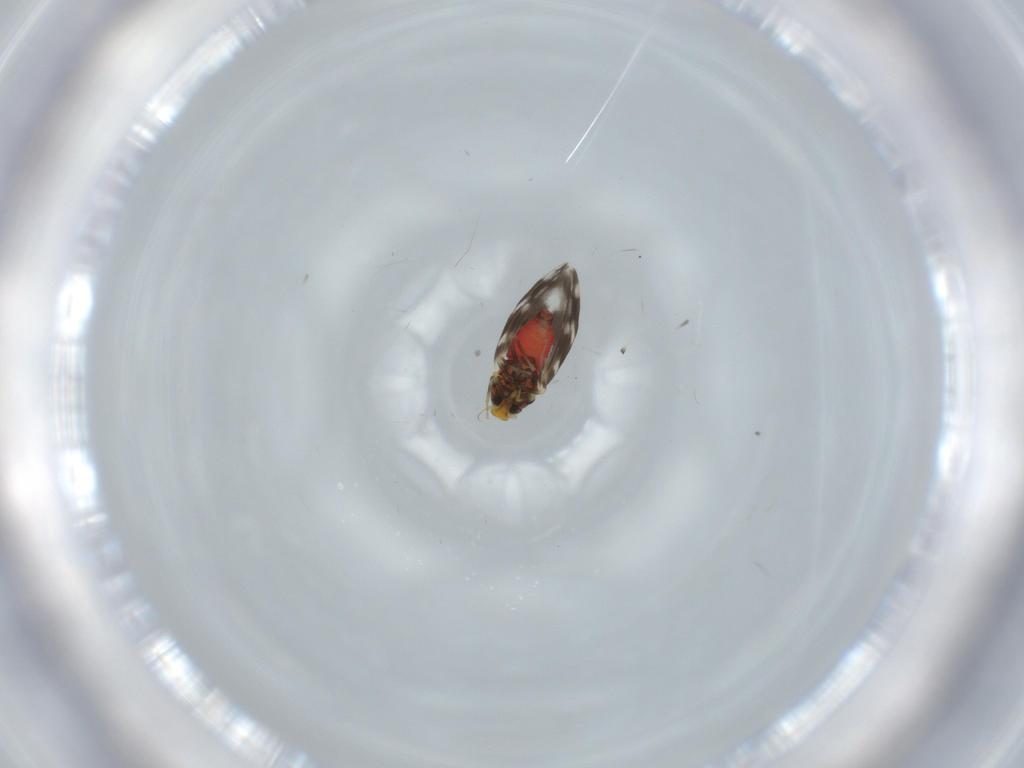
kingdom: Animalia
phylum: Arthropoda
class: Insecta
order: Hemiptera
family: Aleyrodidae
